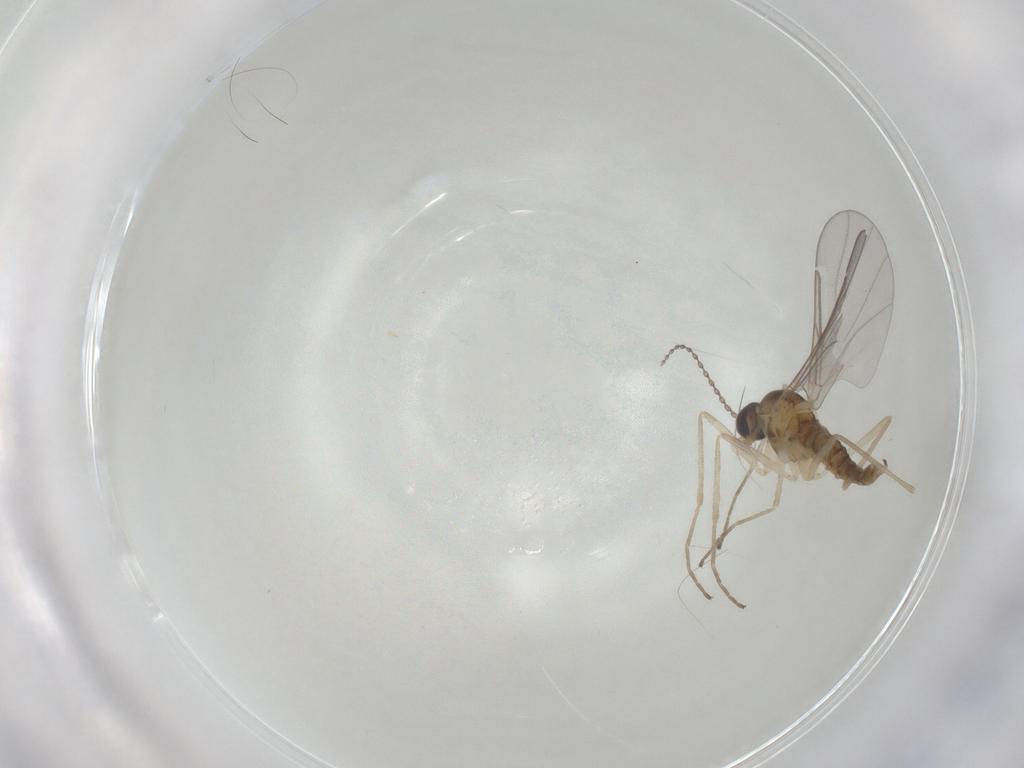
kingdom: Animalia
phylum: Arthropoda
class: Insecta
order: Diptera
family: Cecidomyiidae
